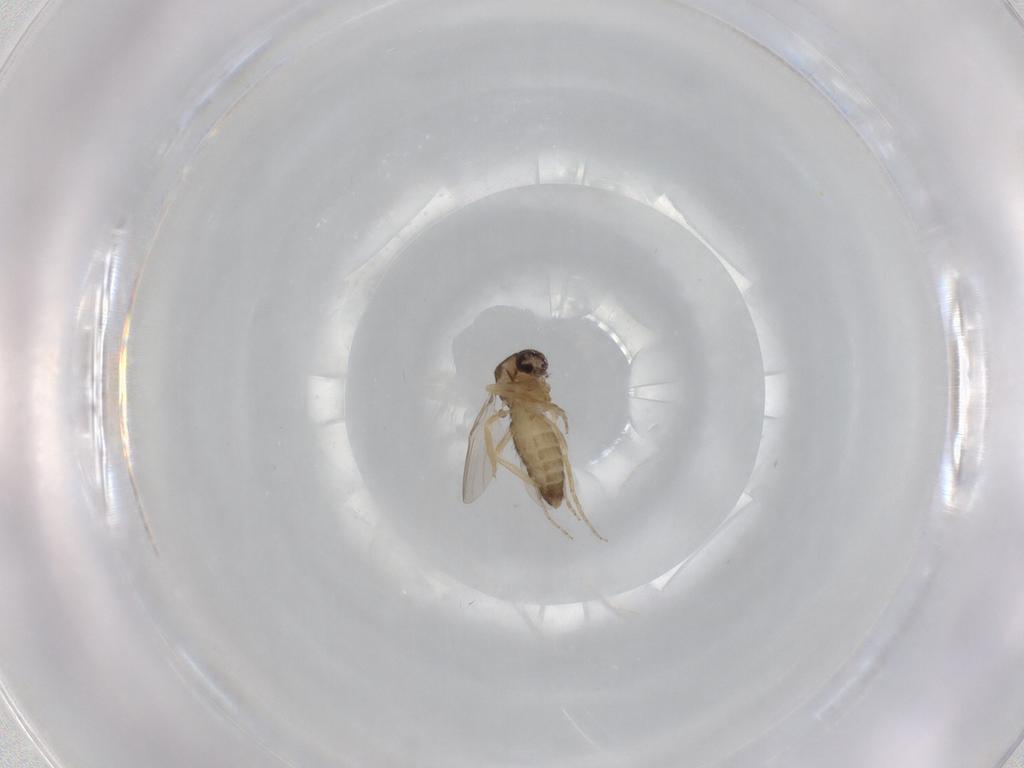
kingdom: Animalia
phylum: Arthropoda
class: Insecta
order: Diptera
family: Ceratopogonidae
